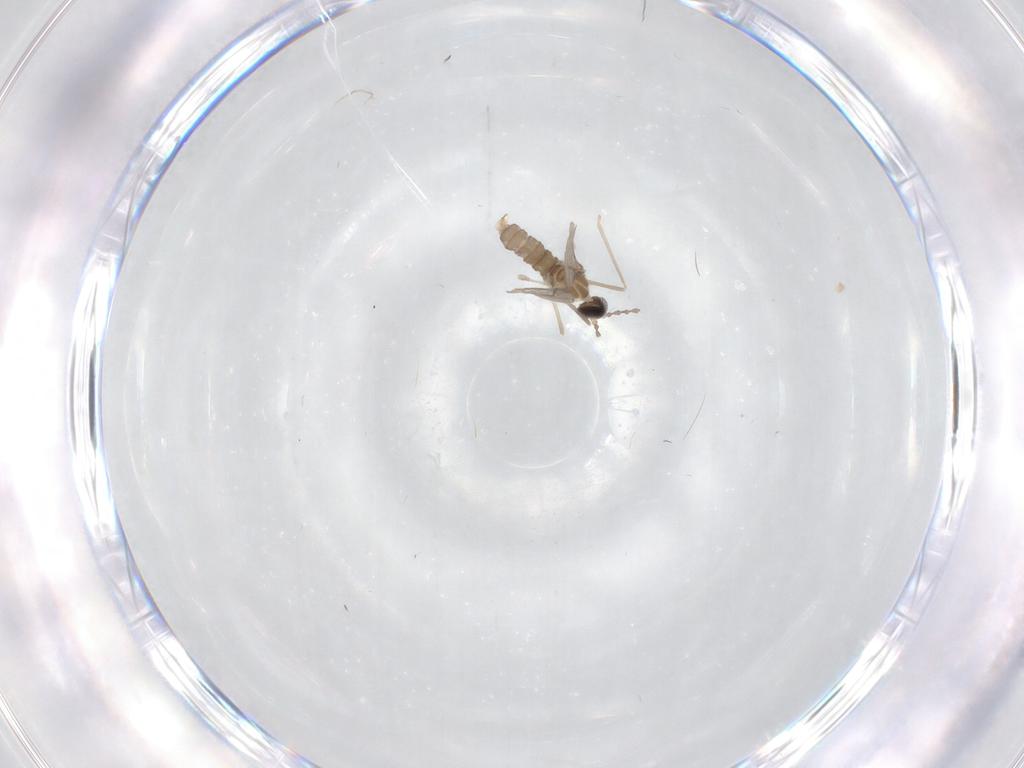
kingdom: Animalia
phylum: Arthropoda
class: Insecta
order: Diptera
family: Cecidomyiidae
